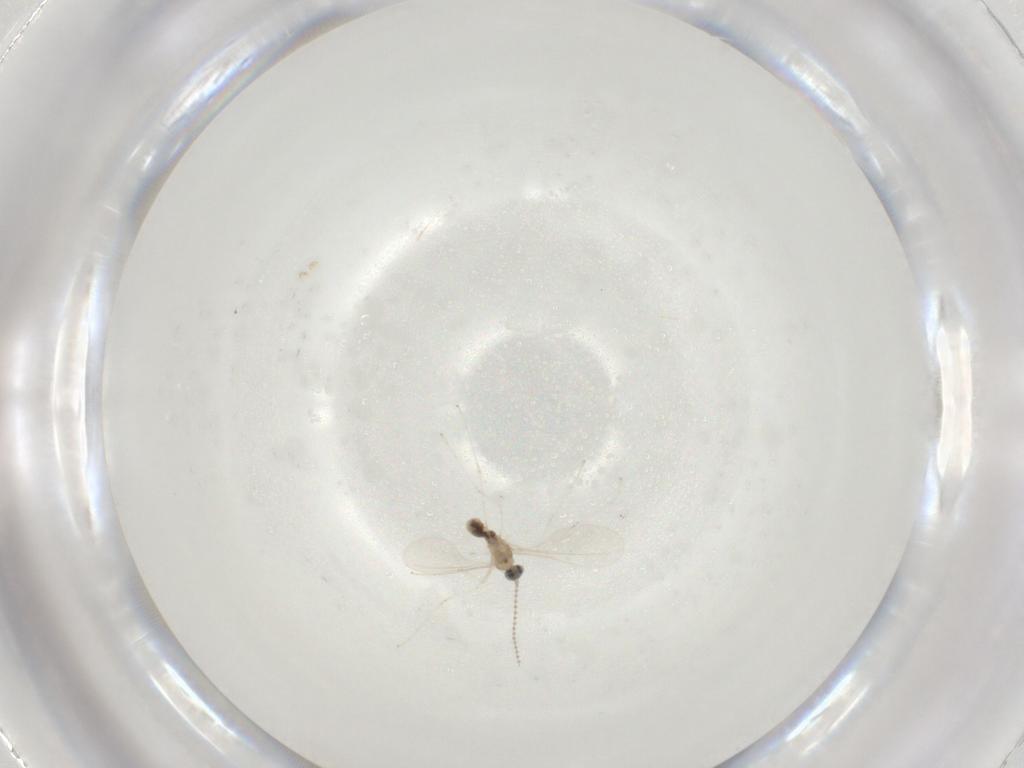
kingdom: Animalia
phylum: Arthropoda
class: Insecta
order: Diptera
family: Cecidomyiidae
